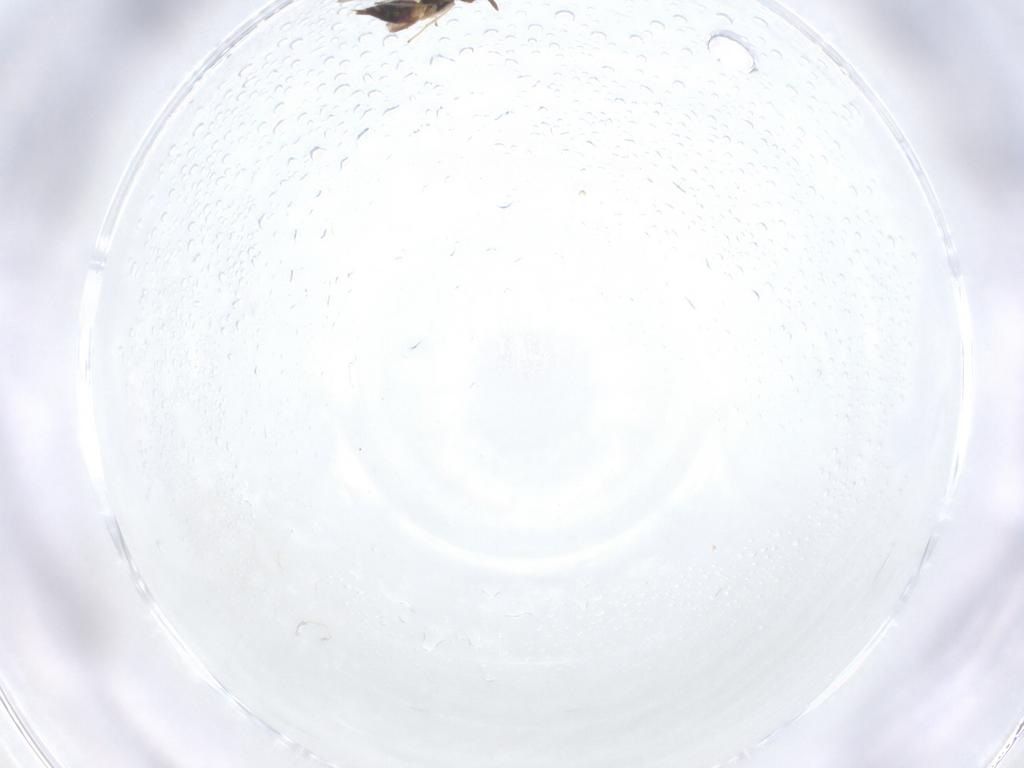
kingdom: Animalia
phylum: Arthropoda
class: Insecta
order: Hymenoptera
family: Eulophidae
